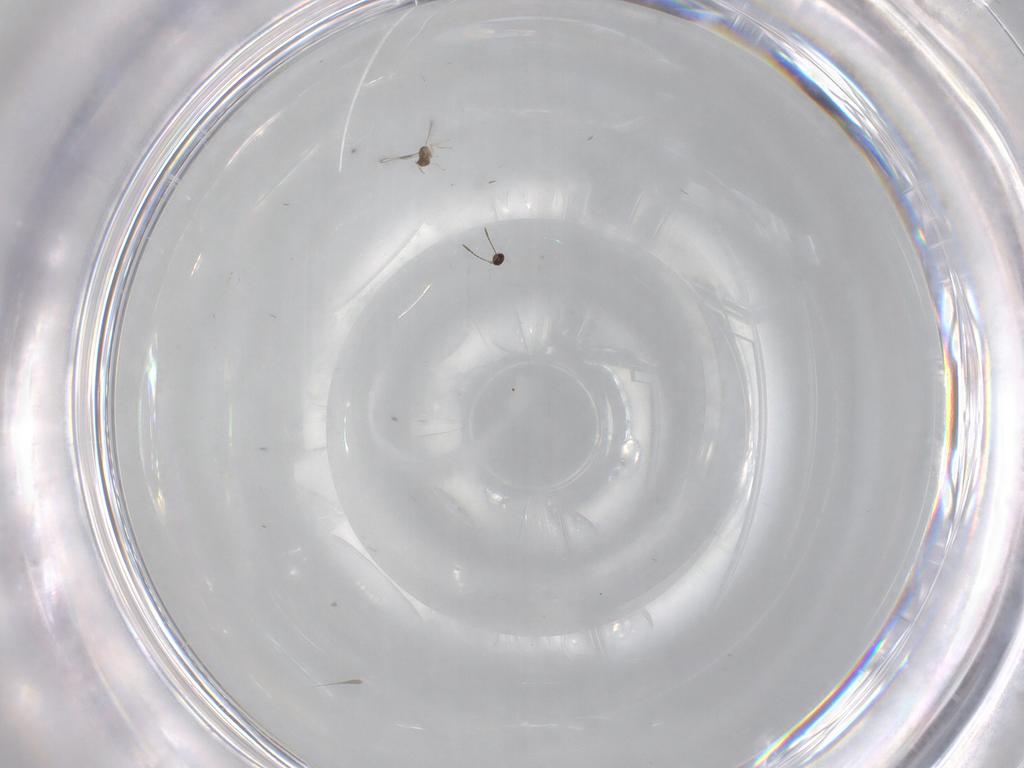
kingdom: Animalia
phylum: Arthropoda
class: Insecta
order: Hymenoptera
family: Mymaridae
